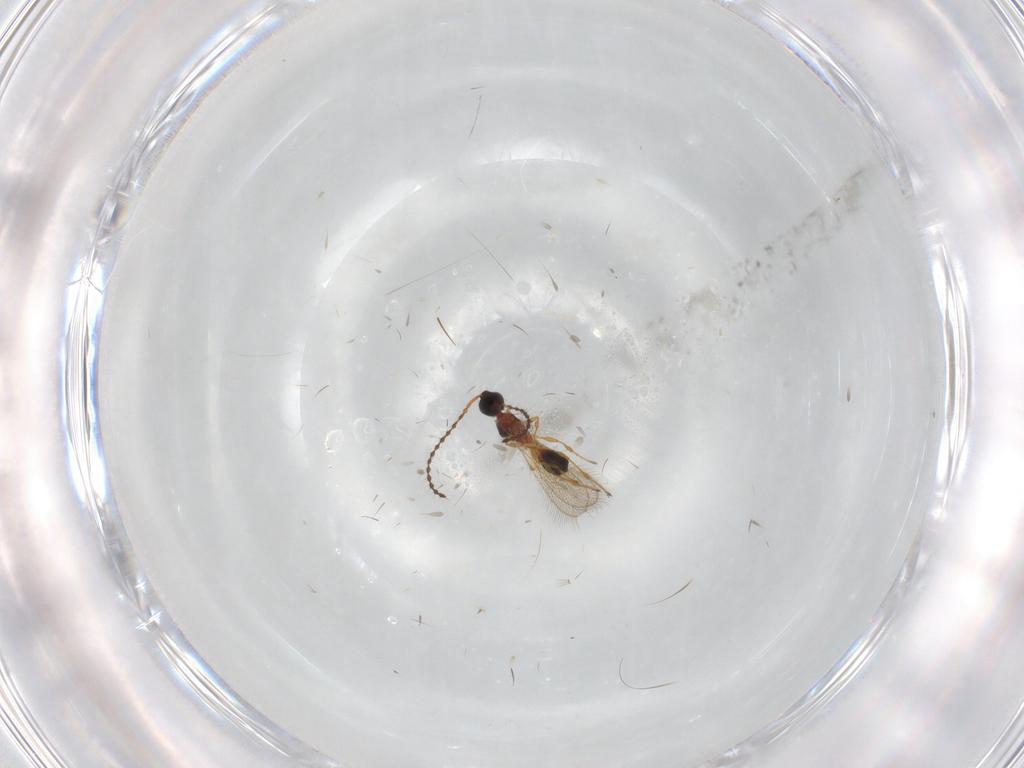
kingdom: Animalia
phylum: Arthropoda
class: Insecta
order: Hymenoptera
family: Diapriidae
